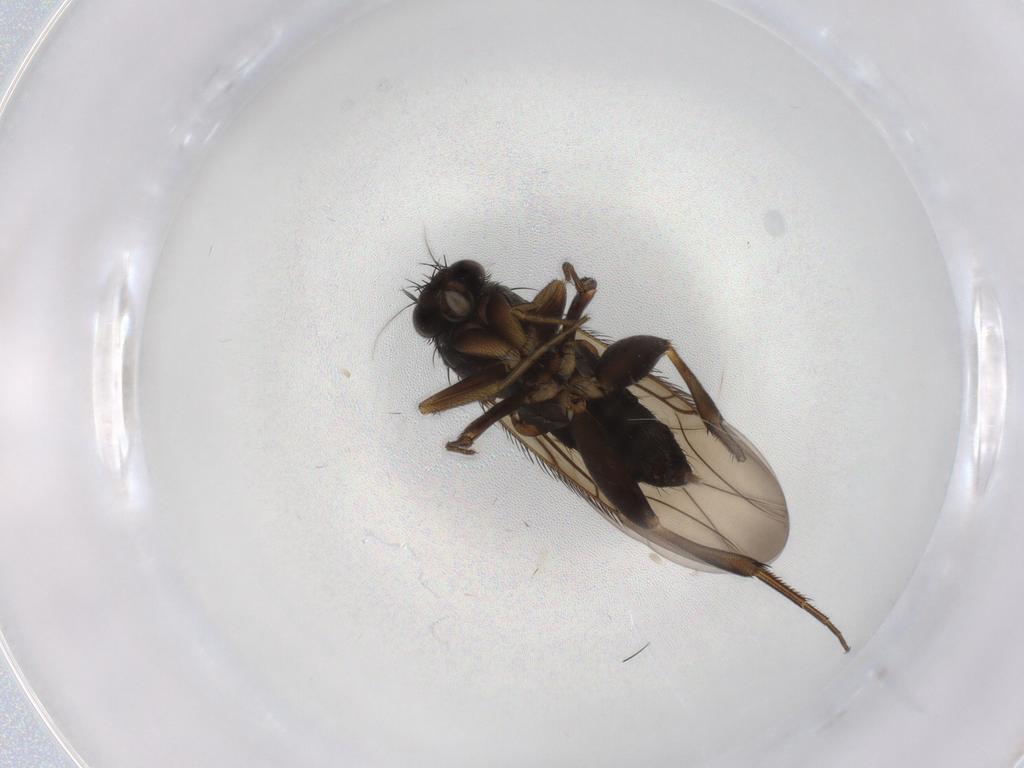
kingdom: Animalia
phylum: Arthropoda
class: Insecta
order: Diptera
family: Phoridae
